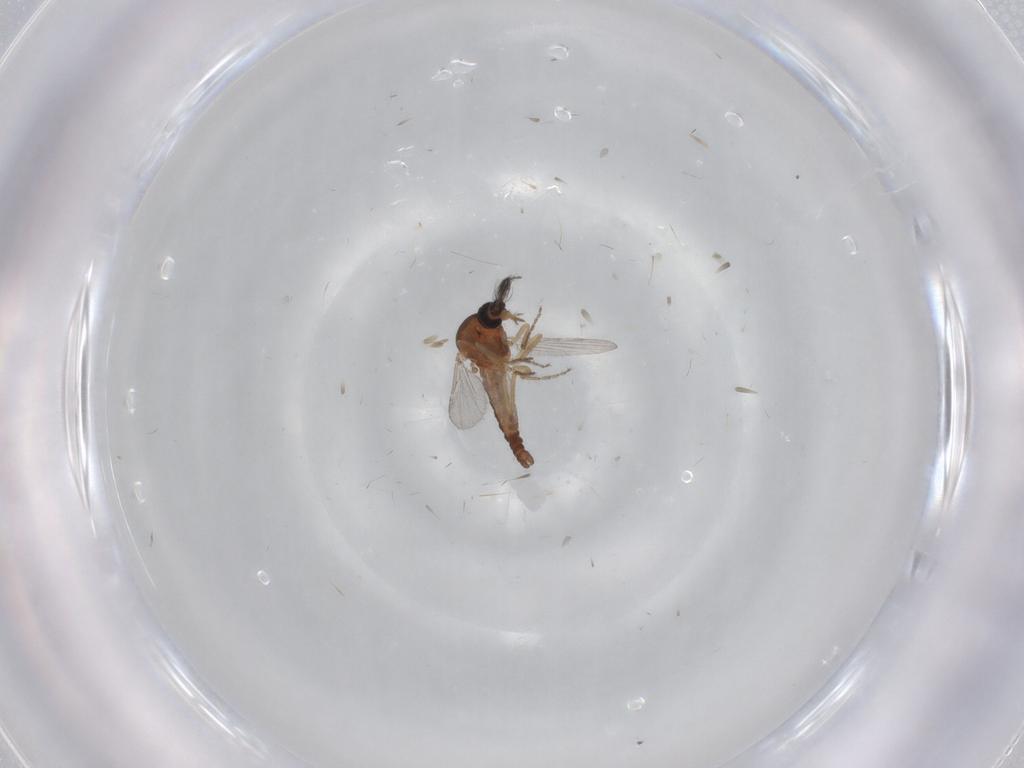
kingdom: Animalia
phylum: Arthropoda
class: Insecta
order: Diptera
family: Ceratopogonidae
